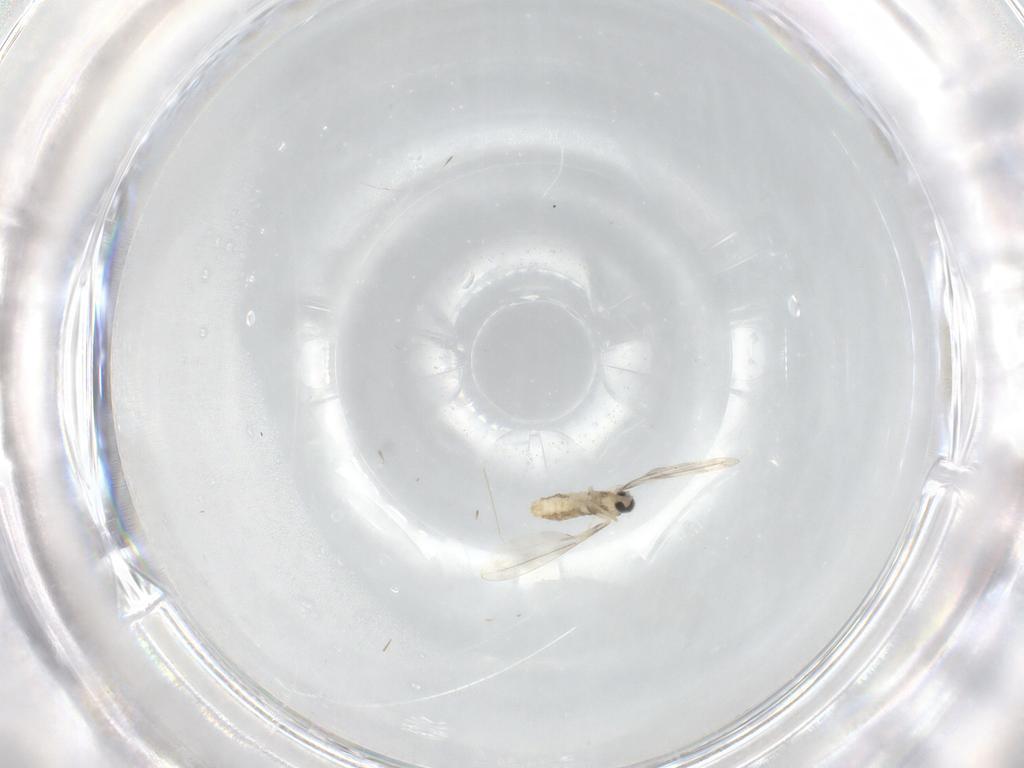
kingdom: Animalia
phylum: Arthropoda
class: Insecta
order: Diptera
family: Cecidomyiidae
